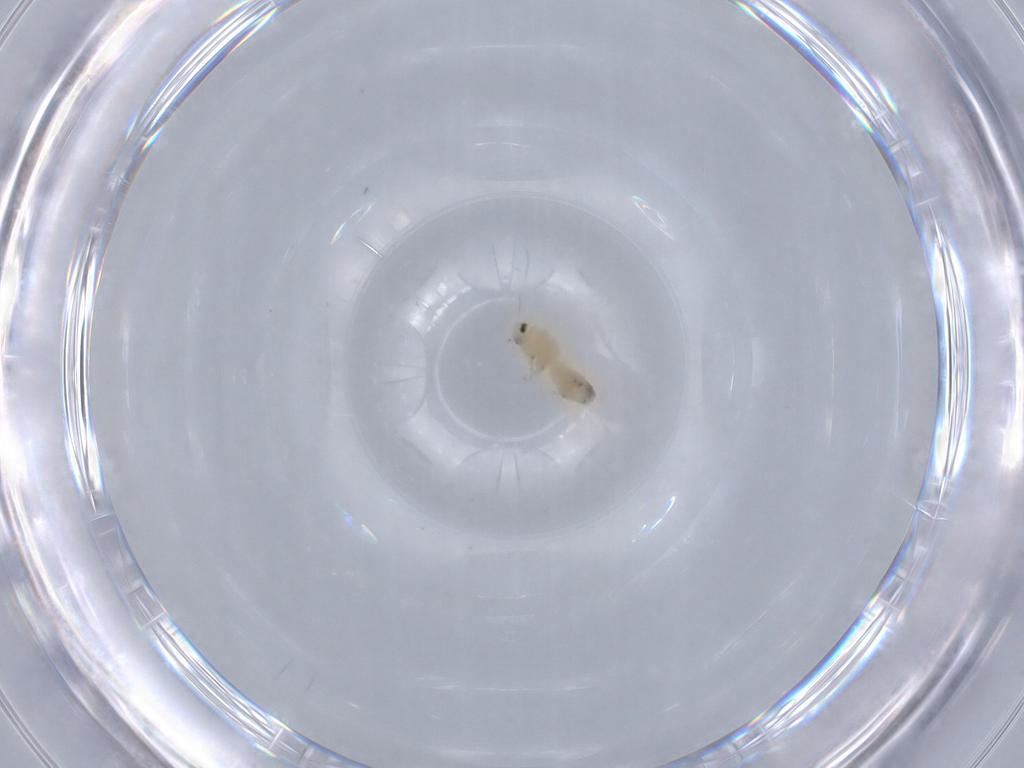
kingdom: Animalia
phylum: Arthropoda
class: Insecta
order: Hemiptera
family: Aleyrodidae
